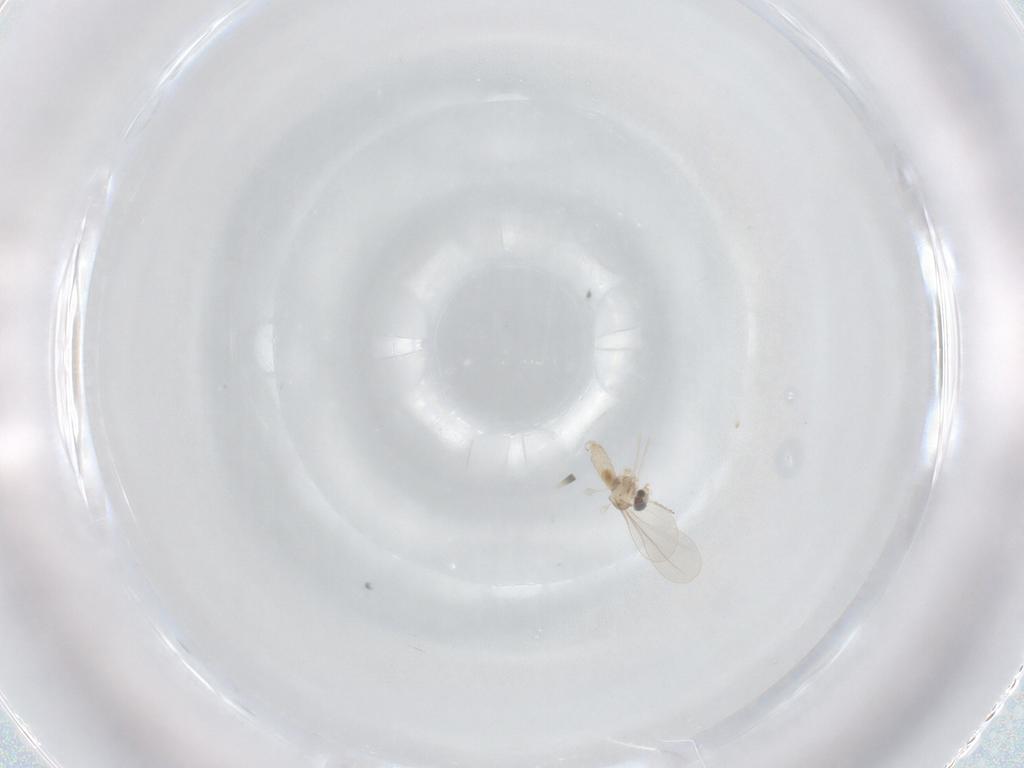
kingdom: Animalia
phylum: Arthropoda
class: Insecta
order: Diptera
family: Cecidomyiidae
